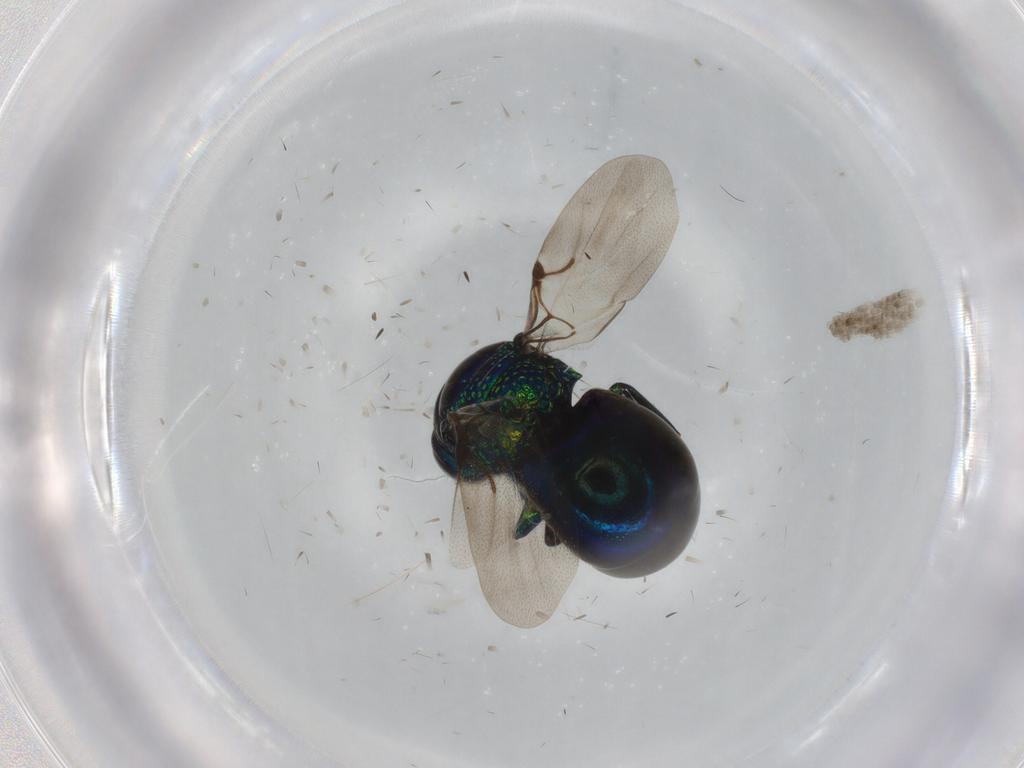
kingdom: Animalia
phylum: Arthropoda
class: Insecta
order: Hymenoptera
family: Chrysididae
